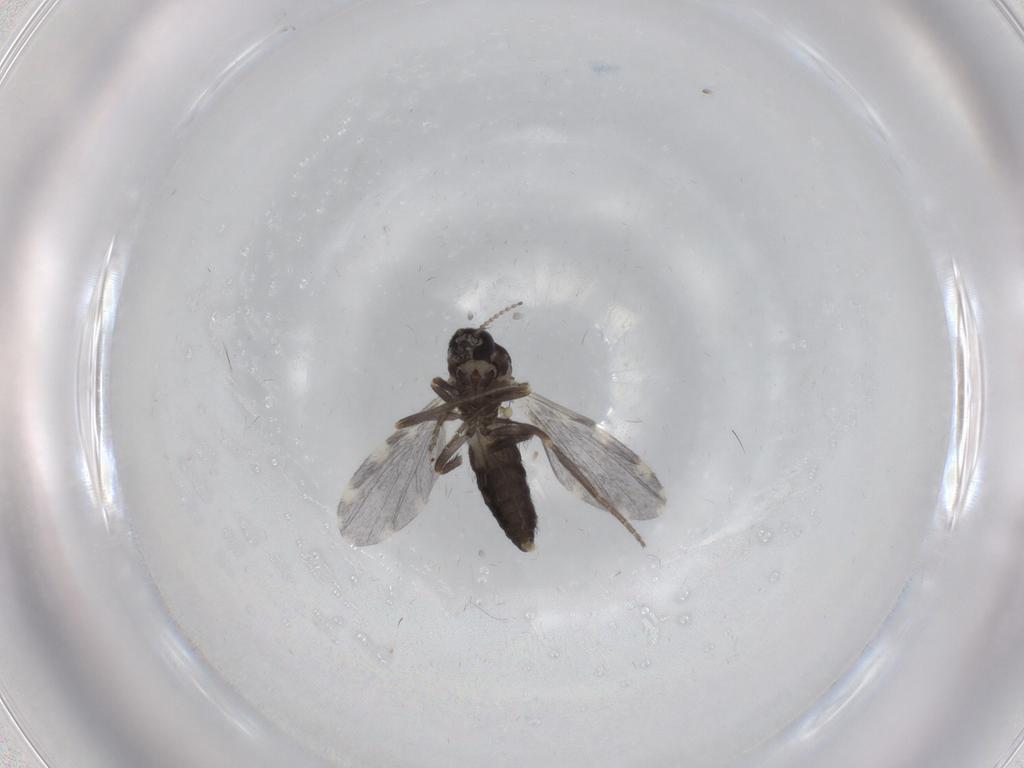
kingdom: Animalia
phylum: Arthropoda
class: Insecta
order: Diptera
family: Ceratopogonidae
